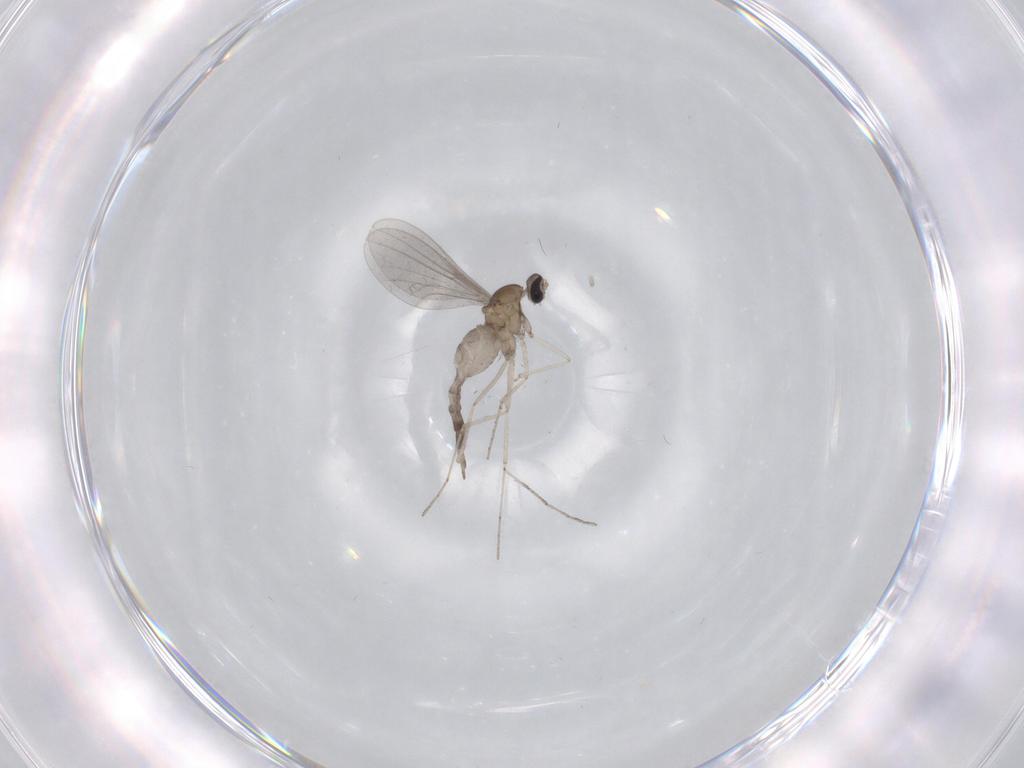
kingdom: Animalia
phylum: Arthropoda
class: Insecta
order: Diptera
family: Cecidomyiidae
